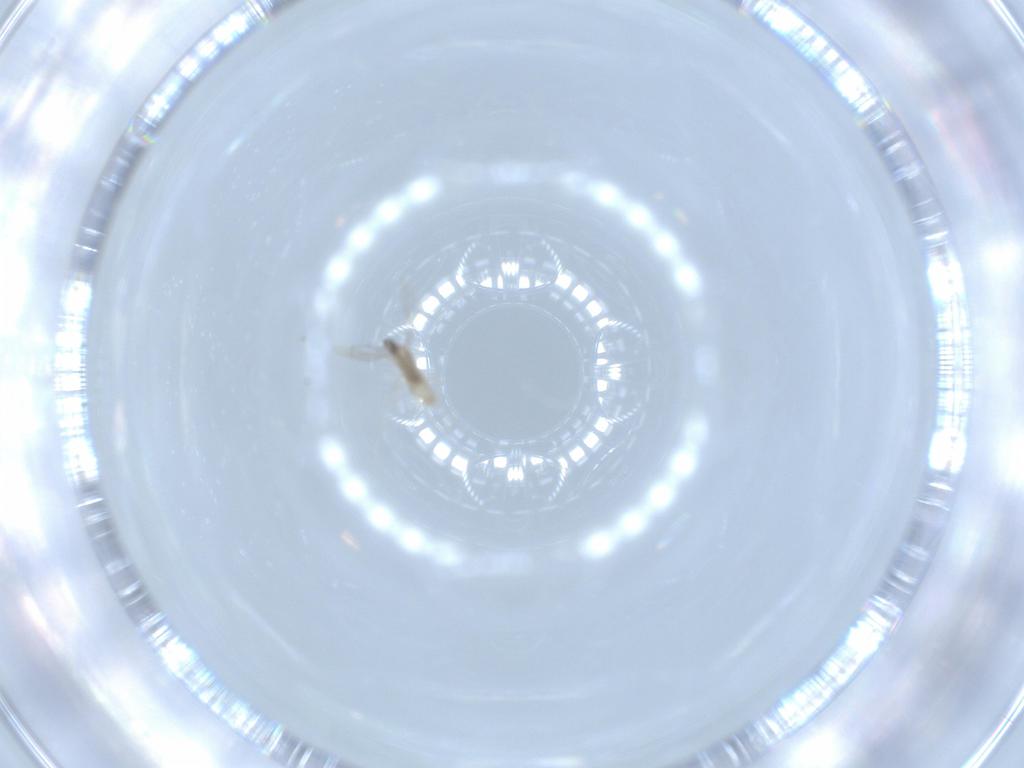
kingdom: Animalia
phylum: Arthropoda
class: Insecta
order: Diptera
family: Cecidomyiidae
